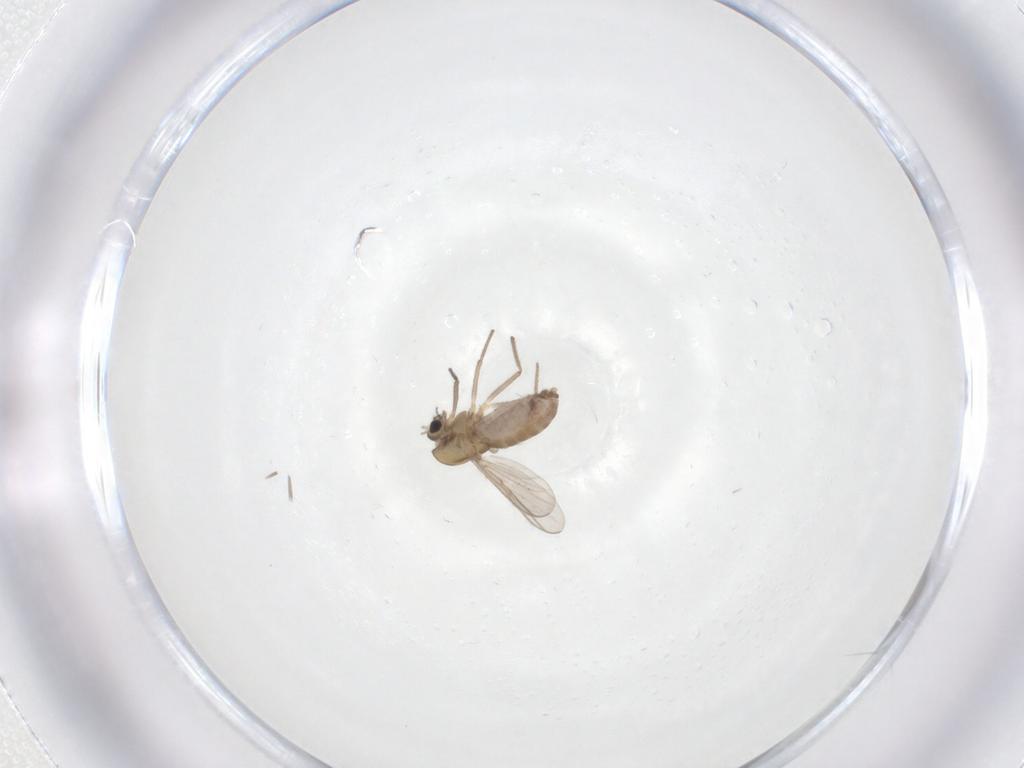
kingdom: Animalia
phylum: Arthropoda
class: Insecta
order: Diptera
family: Chironomidae
